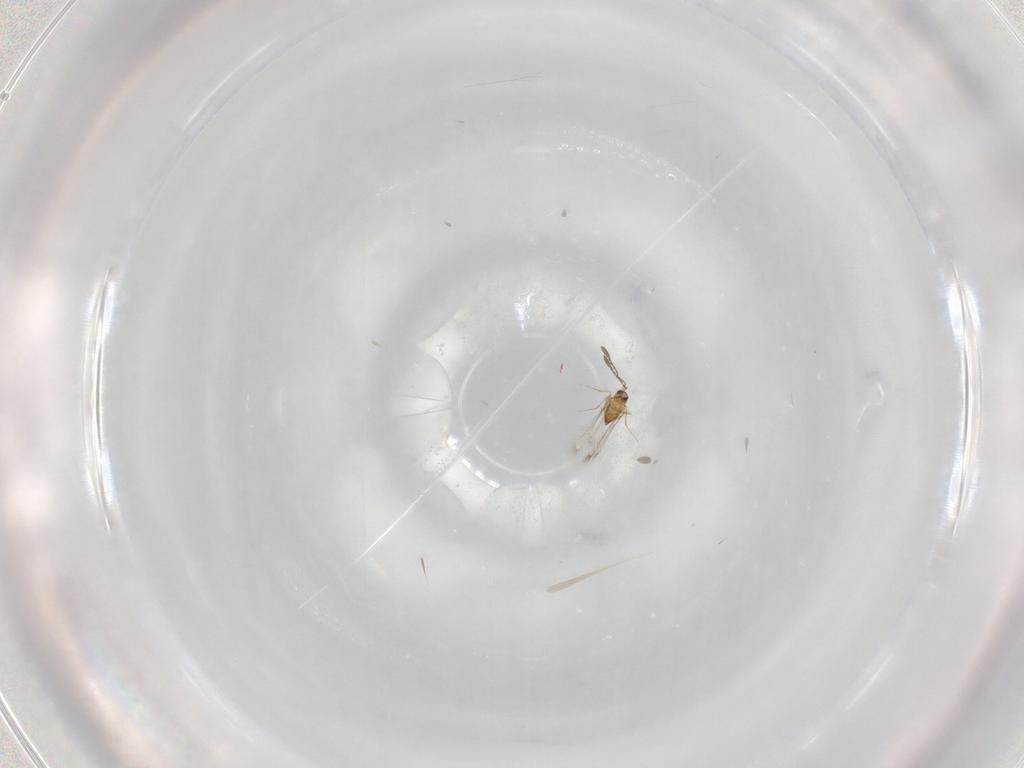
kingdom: Animalia
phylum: Arthropoda
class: Insecta
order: Hymenoptera
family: Mymaridae
